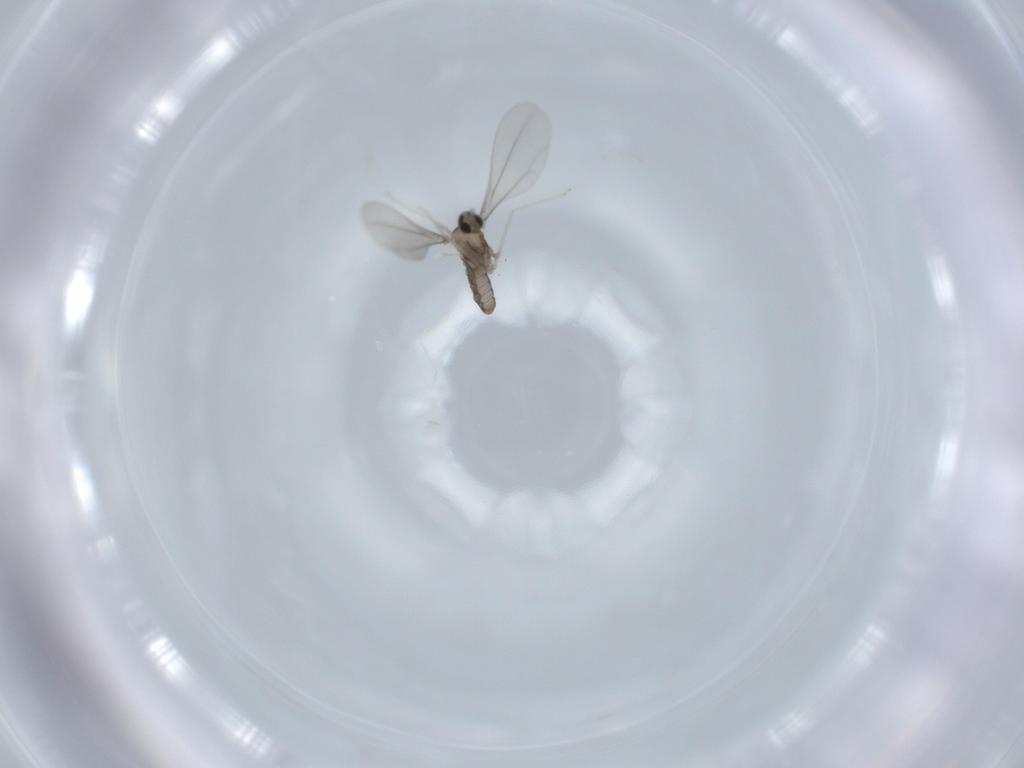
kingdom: Animalia
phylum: Arthropoda
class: Insecta
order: Diptera
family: Cecidomyiidae
